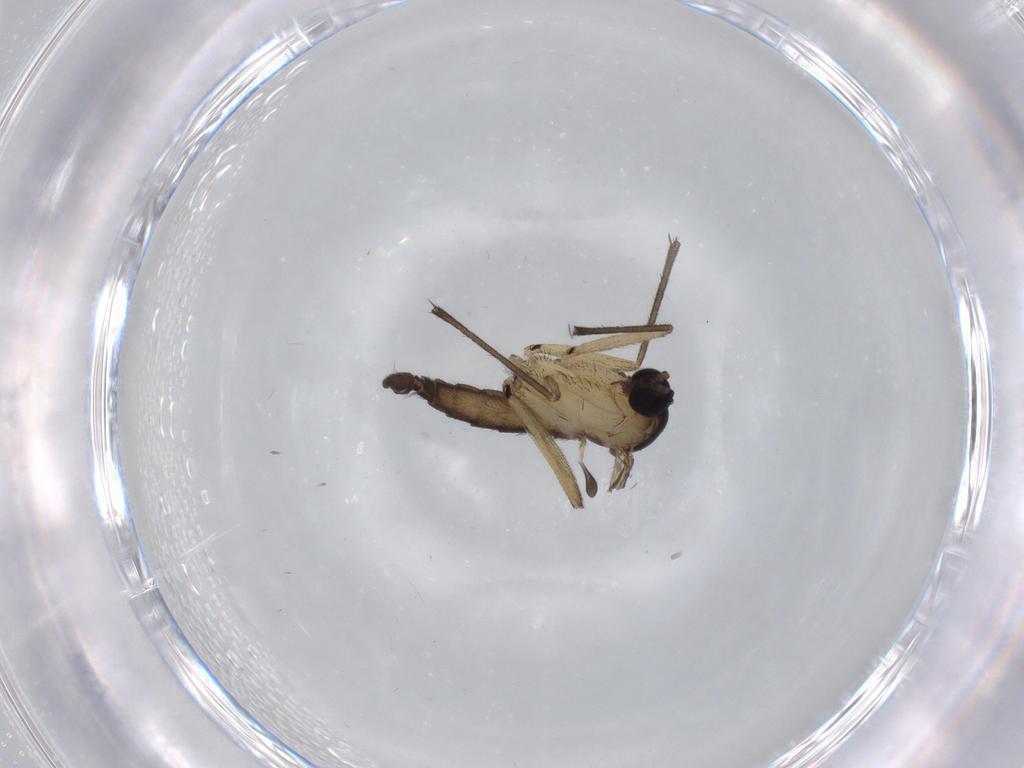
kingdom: Animalia
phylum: Arthropoda
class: Insecta
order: Diptera
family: Sciaridae
